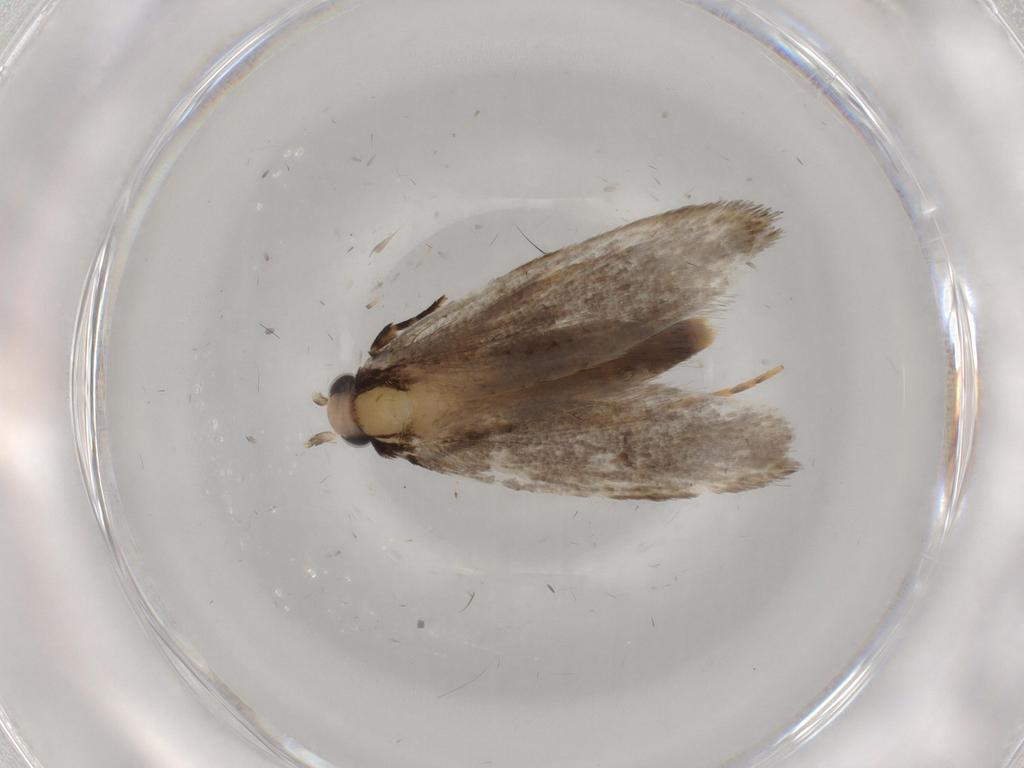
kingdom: Animalia
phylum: Arthropoda
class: Insecta
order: Lepidoptera
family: Tineidae
